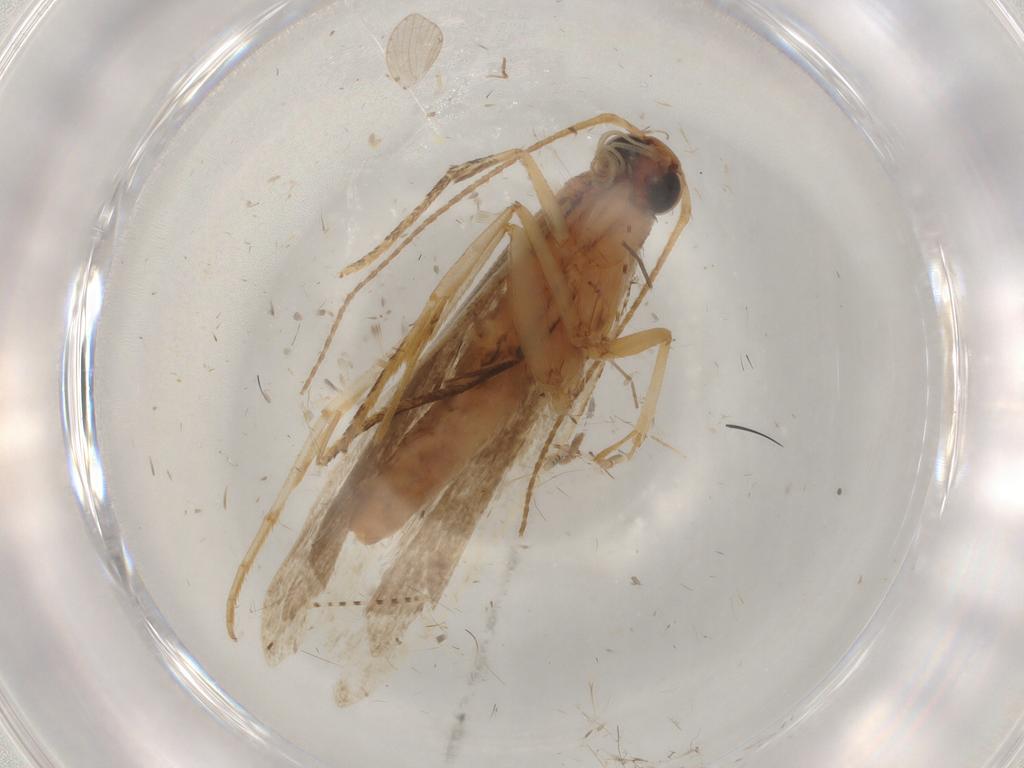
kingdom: Animalia
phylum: Arthropoda
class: Insecta
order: Lepidoptera
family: Gelechiidae
